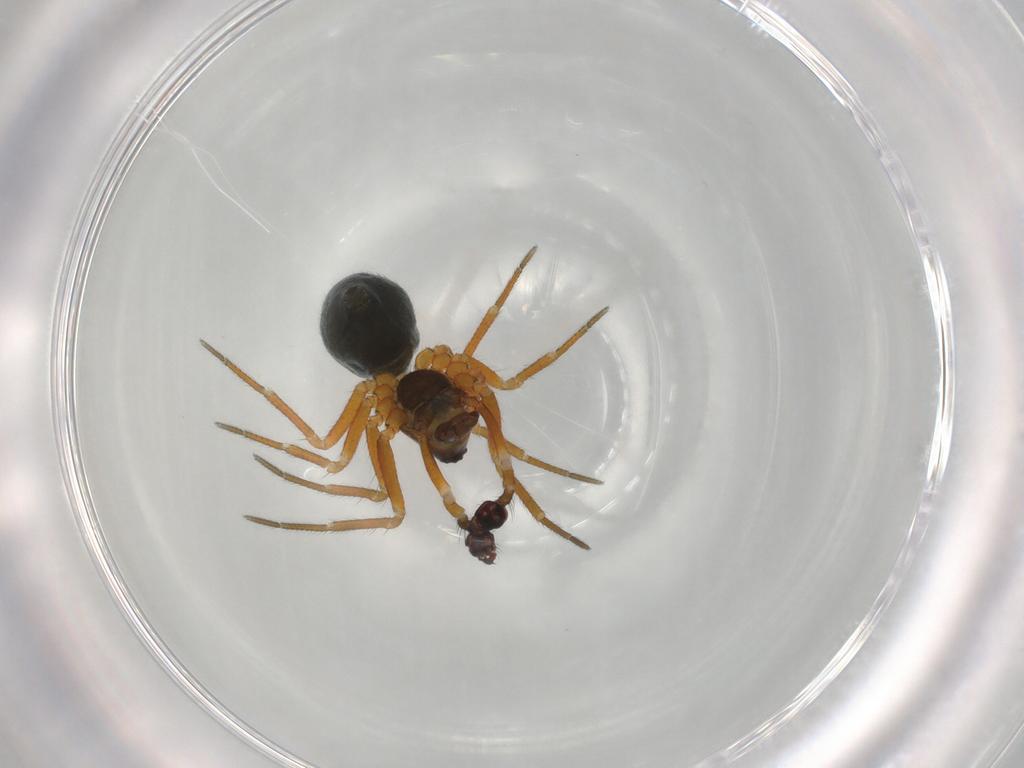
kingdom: Animalia
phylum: Arthropoda
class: Arachnida
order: Araneae
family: Linyphiidae
